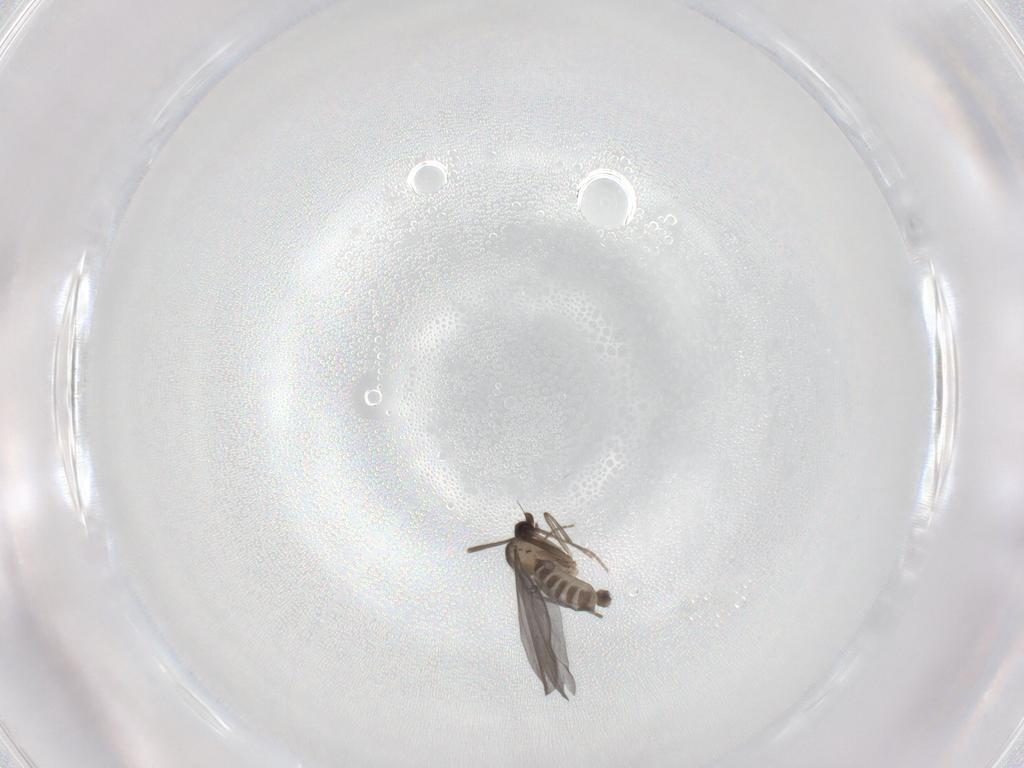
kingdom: Animalia
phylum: Arthropoda
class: Insecta
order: Diptera
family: Phoridae
